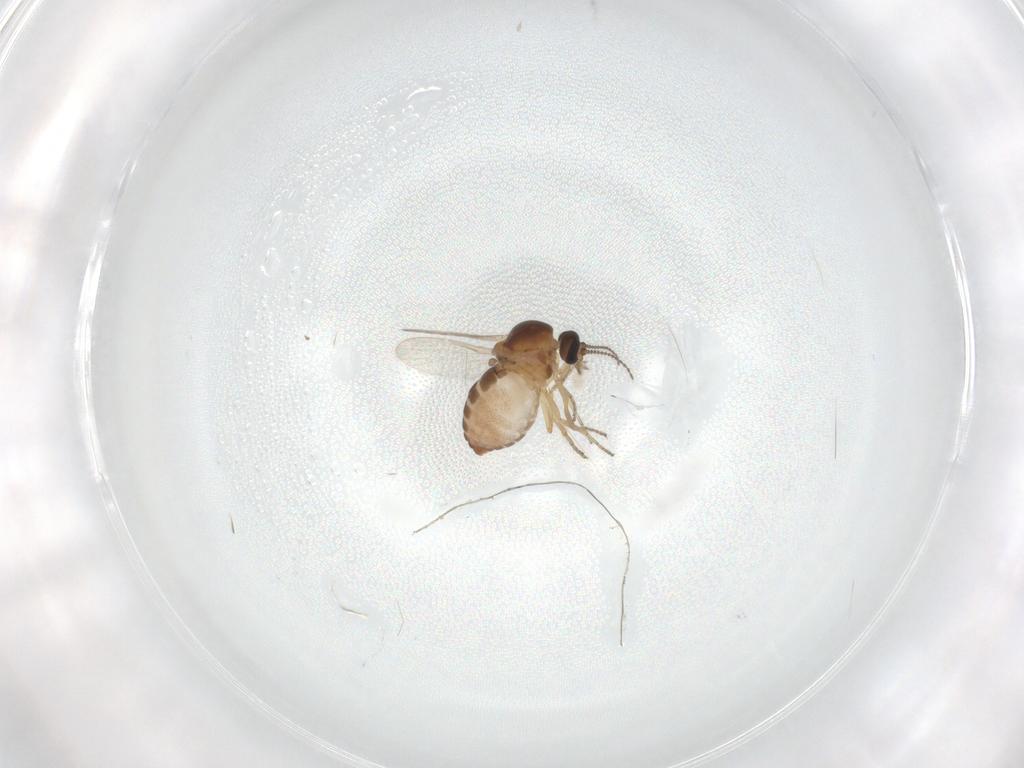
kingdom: Animalia
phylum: Arthropoda
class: Insecta
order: Diptera
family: Ceratopogonidae
